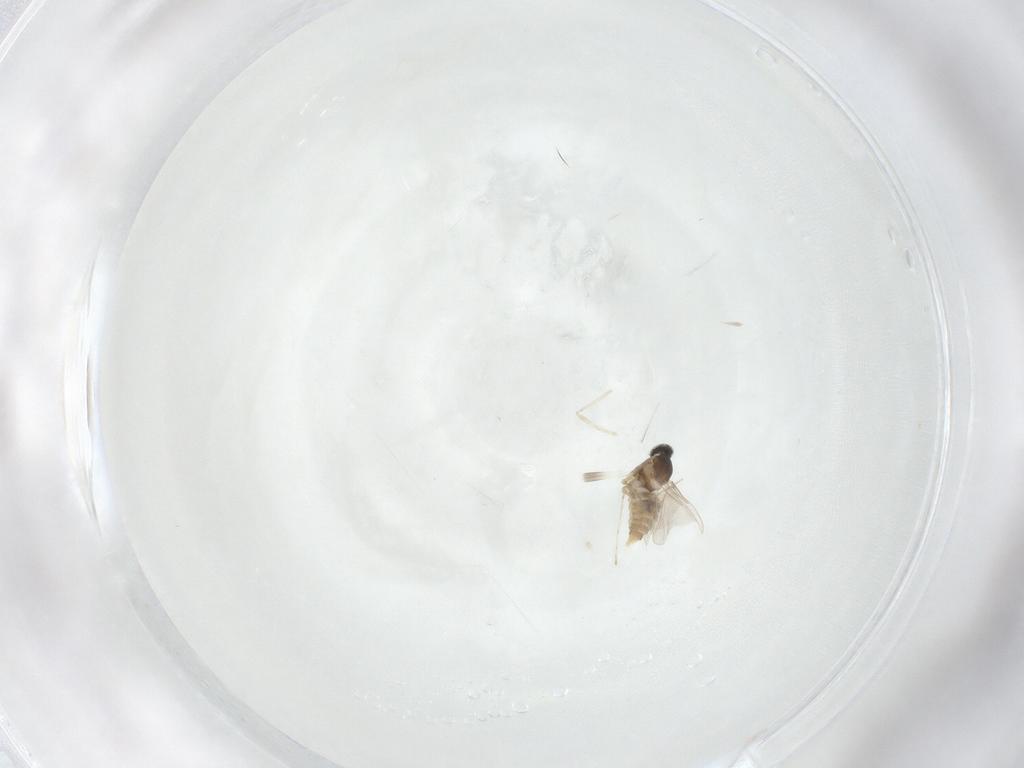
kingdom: Animalia
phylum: Arthropoda
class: Insecta
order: Diptera
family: Cecidomyiidae
